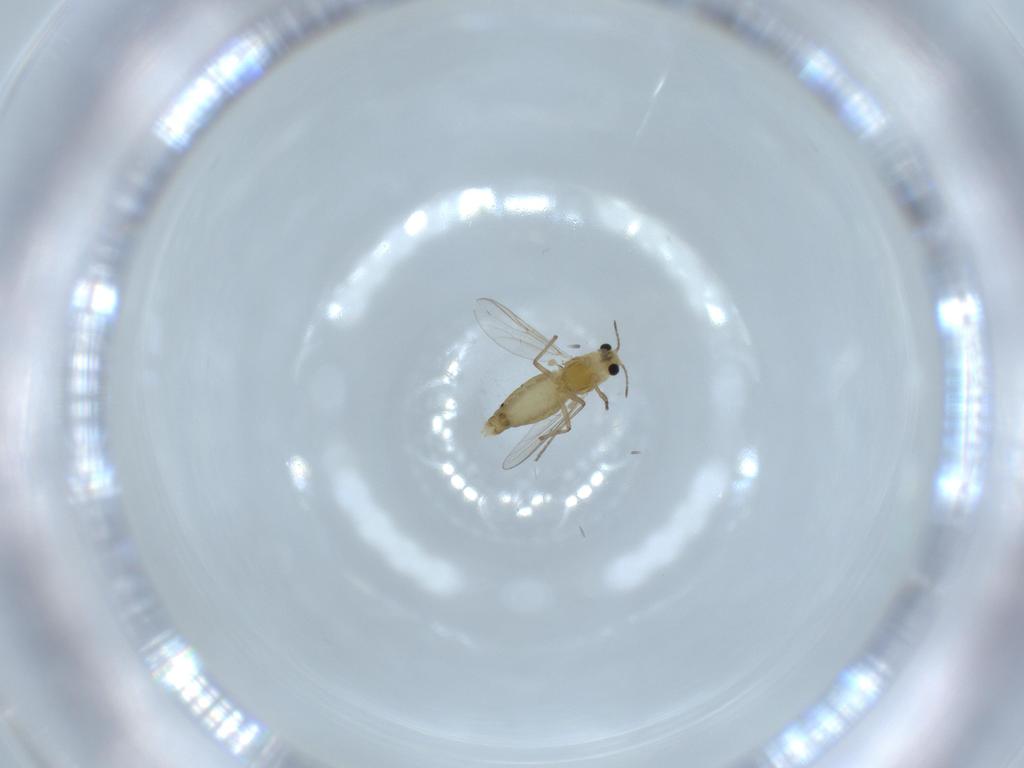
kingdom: Animalia
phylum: Arthropoda
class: Insecta
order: Diptera
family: Chironomidae
